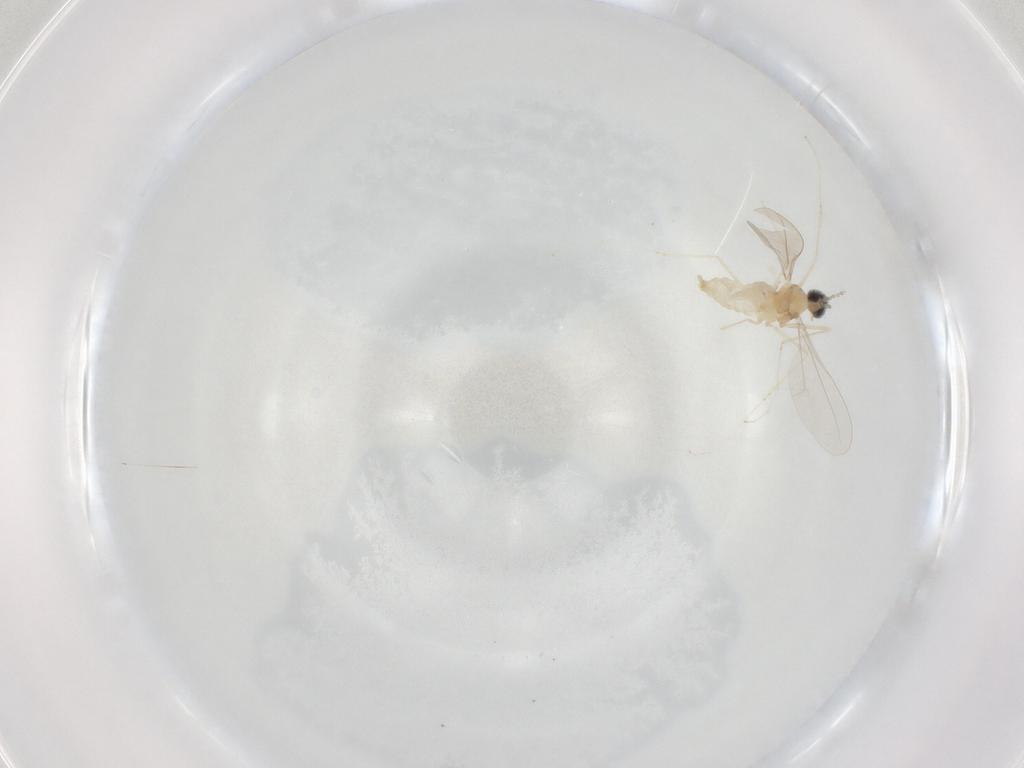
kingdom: Animalia
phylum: Arthropoda
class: Insecta
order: Diptera
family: Cecidomyiidae
